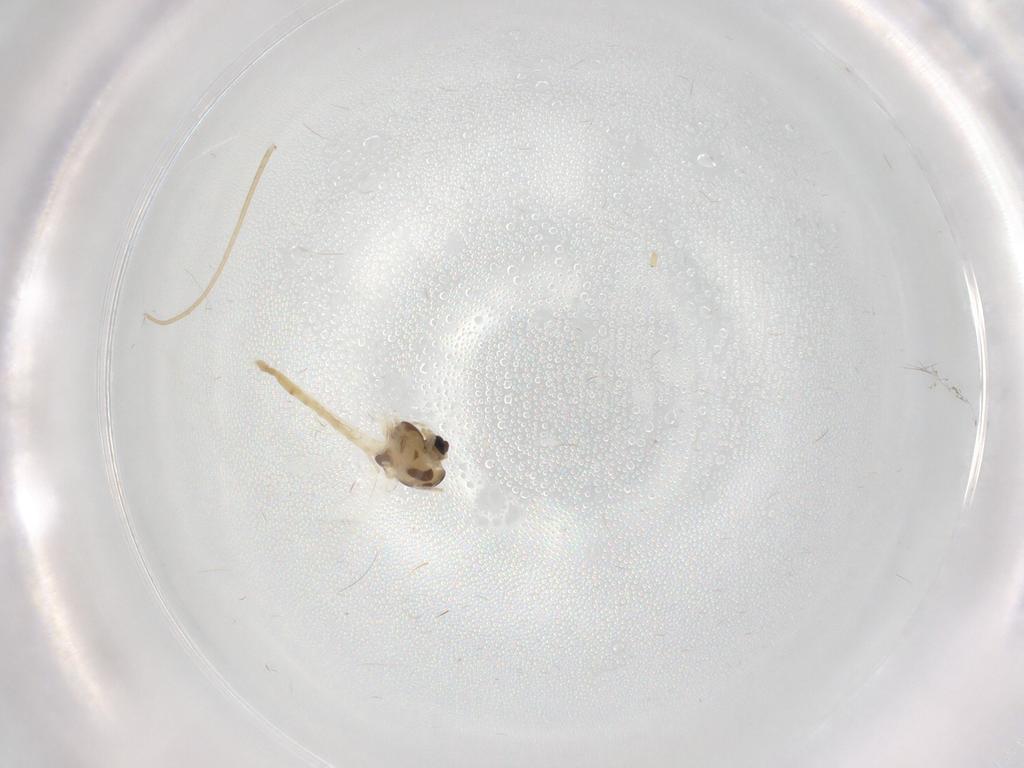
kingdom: Animalia
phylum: Arthropoda
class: Insecta
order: Diptera
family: Chironomidae
